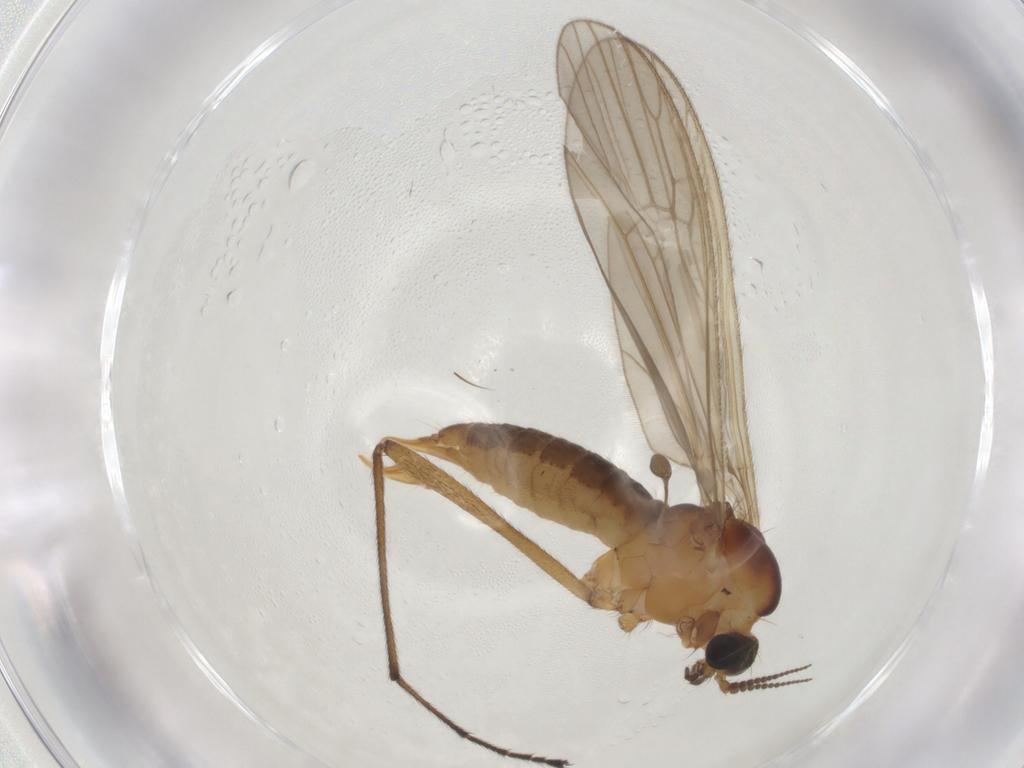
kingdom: Animalia
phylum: Arthropoda
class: Insecta
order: Diptera
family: Limoniidae
